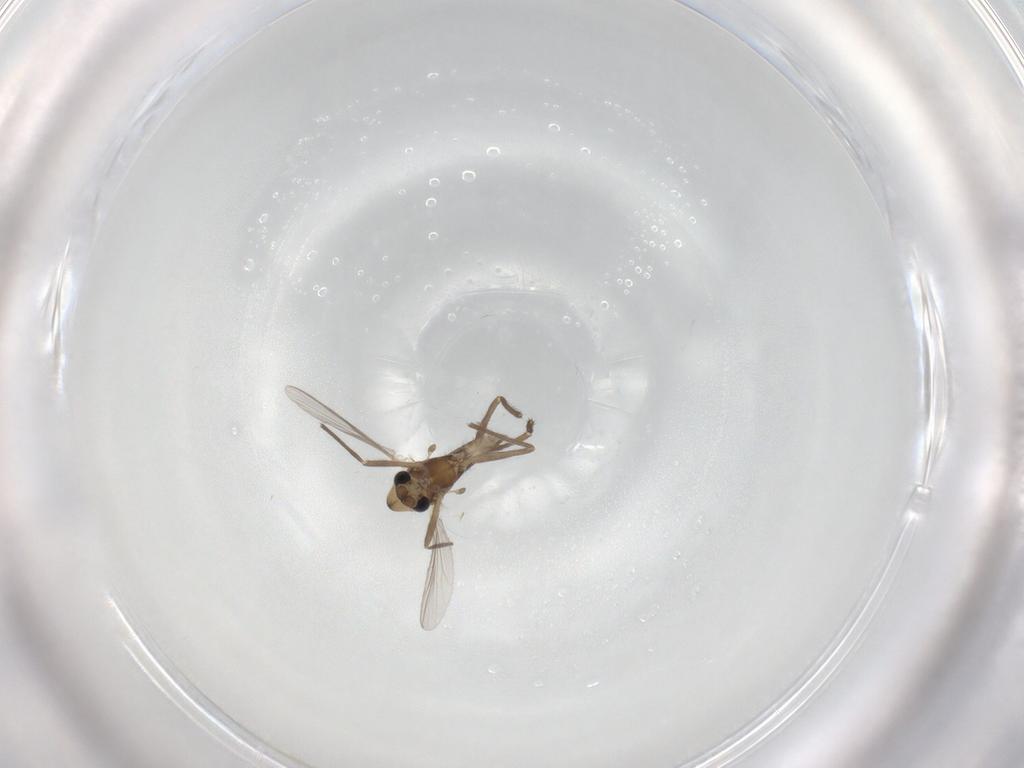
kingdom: Animalia
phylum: Arthropoda
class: Insecta
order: Diptera
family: Chironomidae
